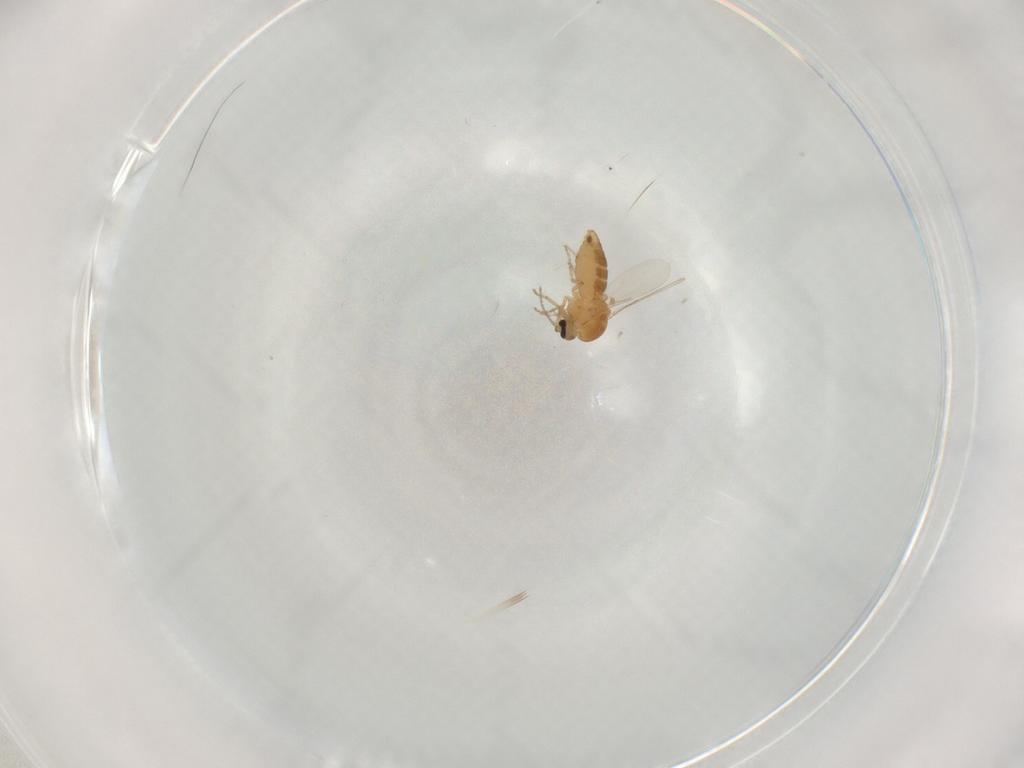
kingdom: Animalia
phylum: Arthropoda
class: Insecta
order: Diptera
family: Ceratopogonidae
